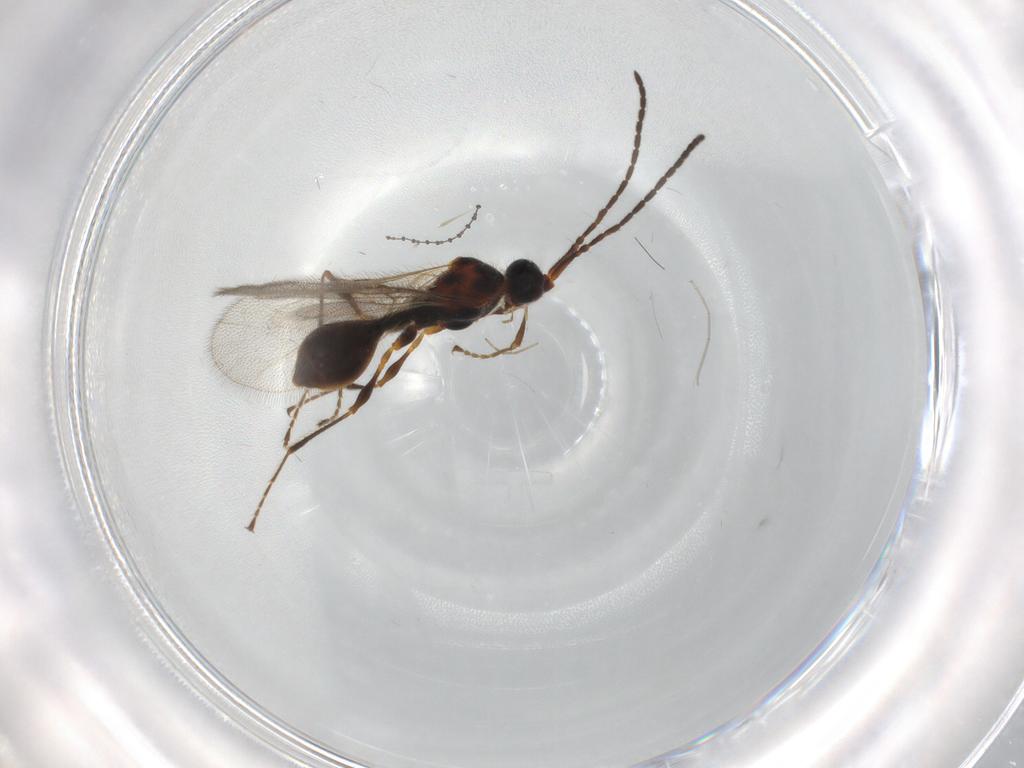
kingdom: Animalia
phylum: Arthropoda
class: Insecta
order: Hymenoptera
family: Diapriidae
